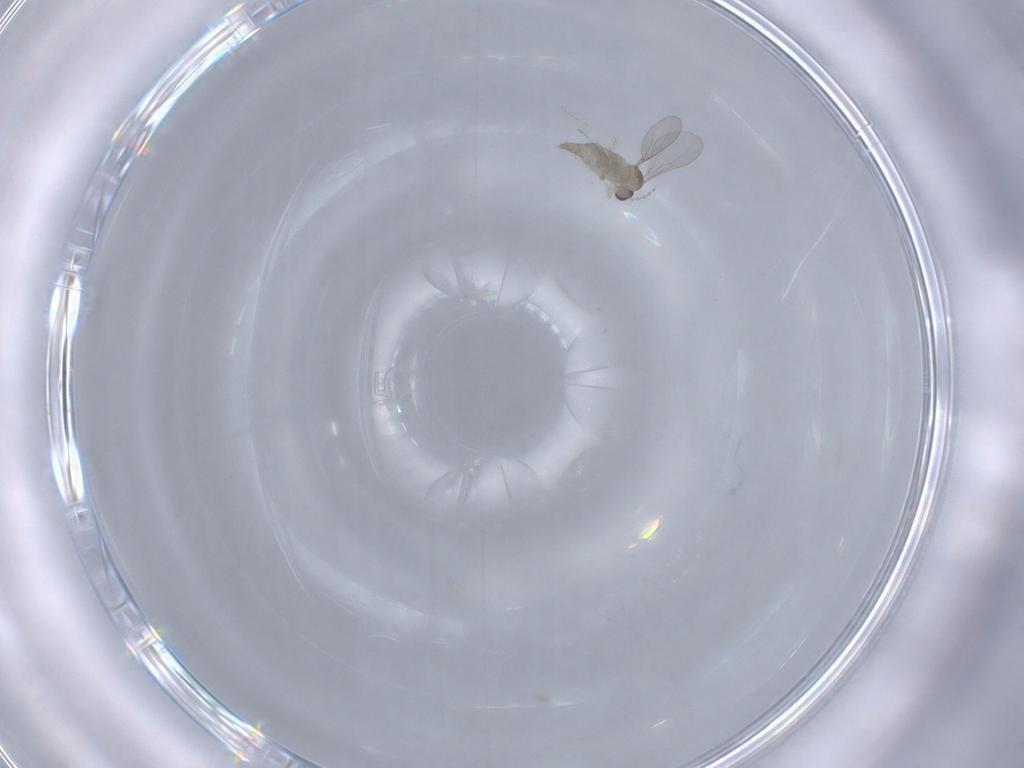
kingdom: Animalia
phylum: Arthropoda
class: Insecta
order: Diptera
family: Cecidomyiidae
